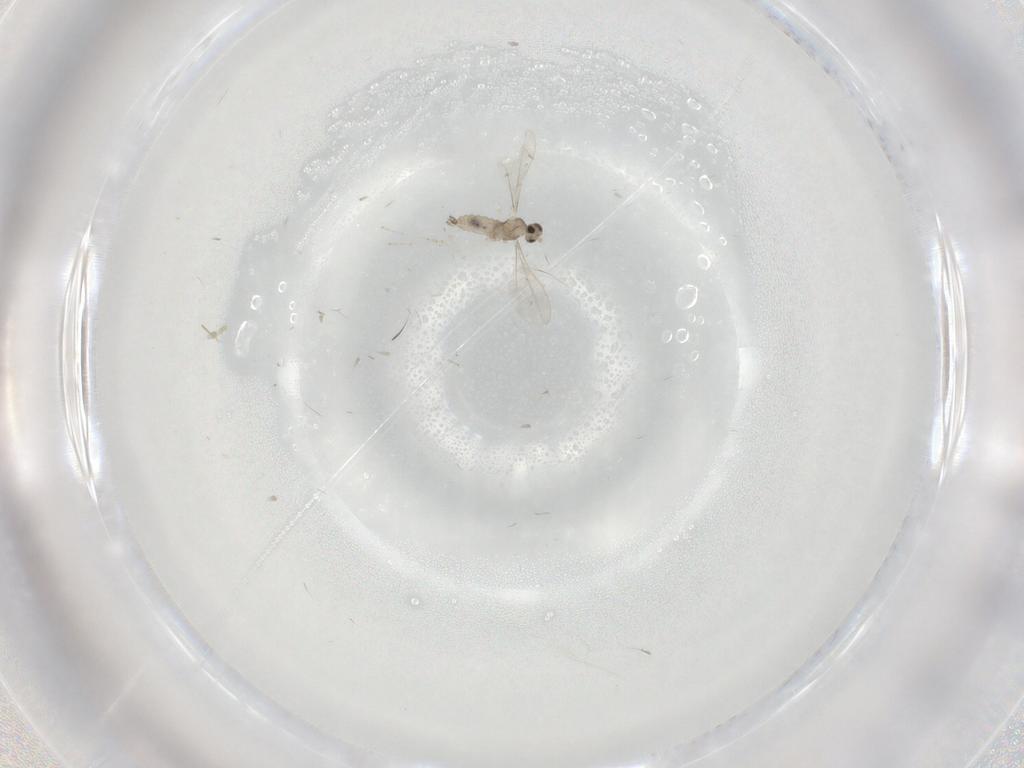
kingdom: Animalia
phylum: Arthropoda
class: Insecta
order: Diptera
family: Cecidomyiidae
